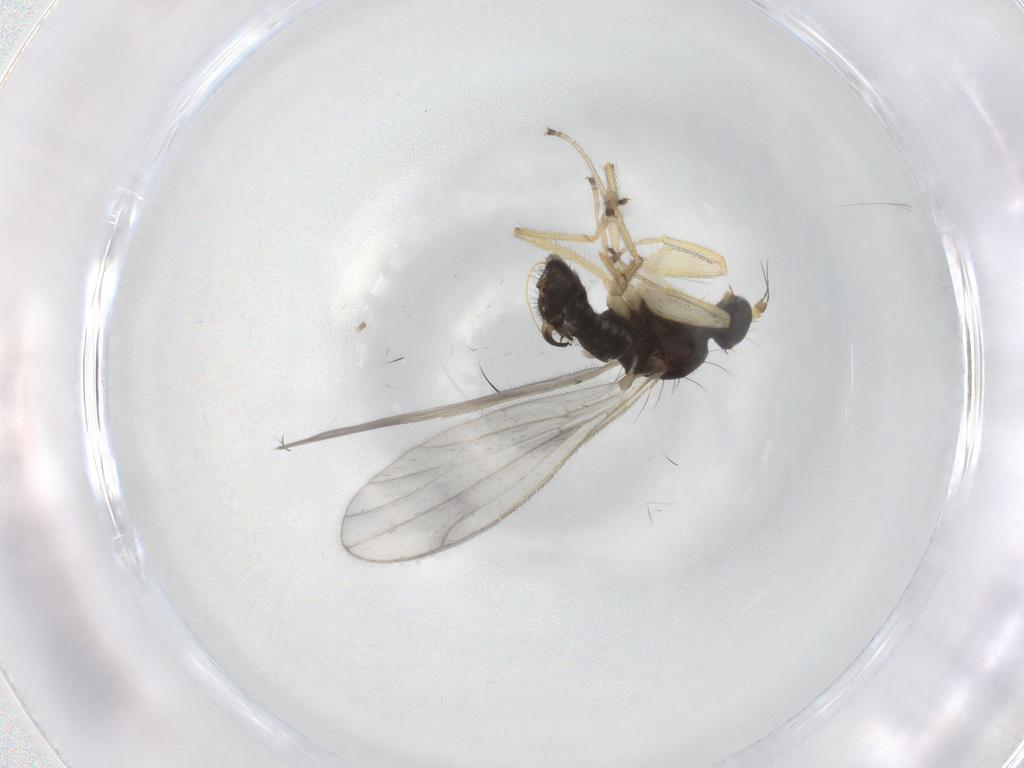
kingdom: Animalia
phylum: Arthropoda
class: Insecta
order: Diptera
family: Empididae
